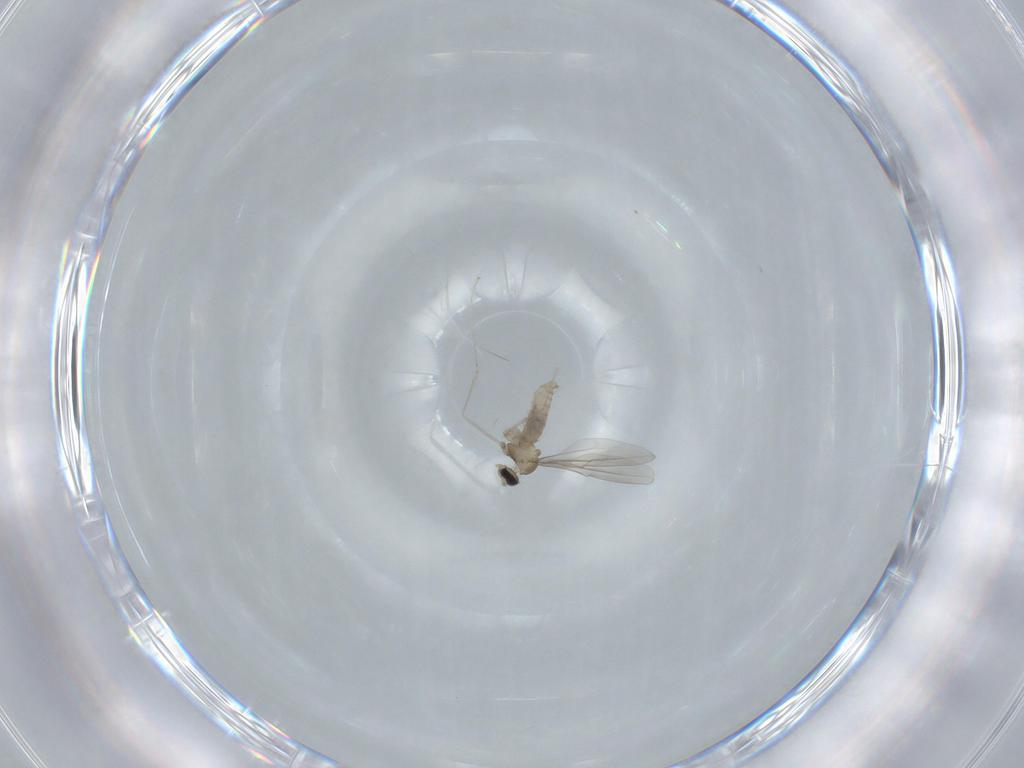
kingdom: Animalia
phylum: Arthropoda
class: Insecta
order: Diptera
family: Cecidomyiidae
